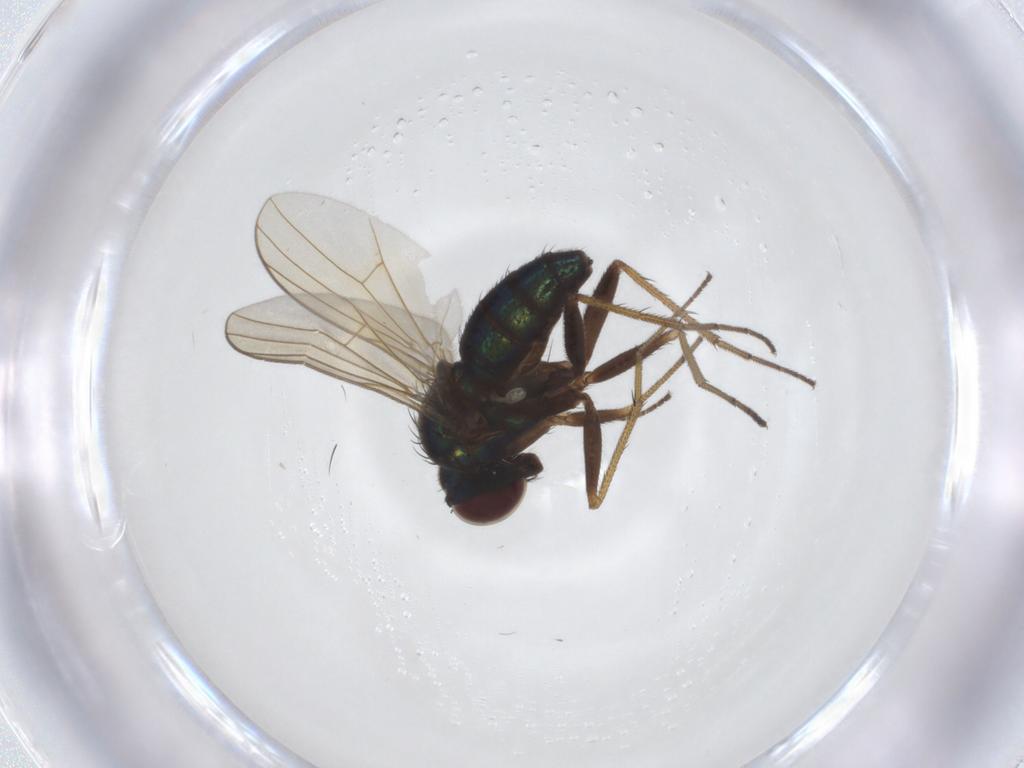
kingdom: Animalia
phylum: Arthropoda
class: Insecta
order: Diptera
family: Dolichopodidae
